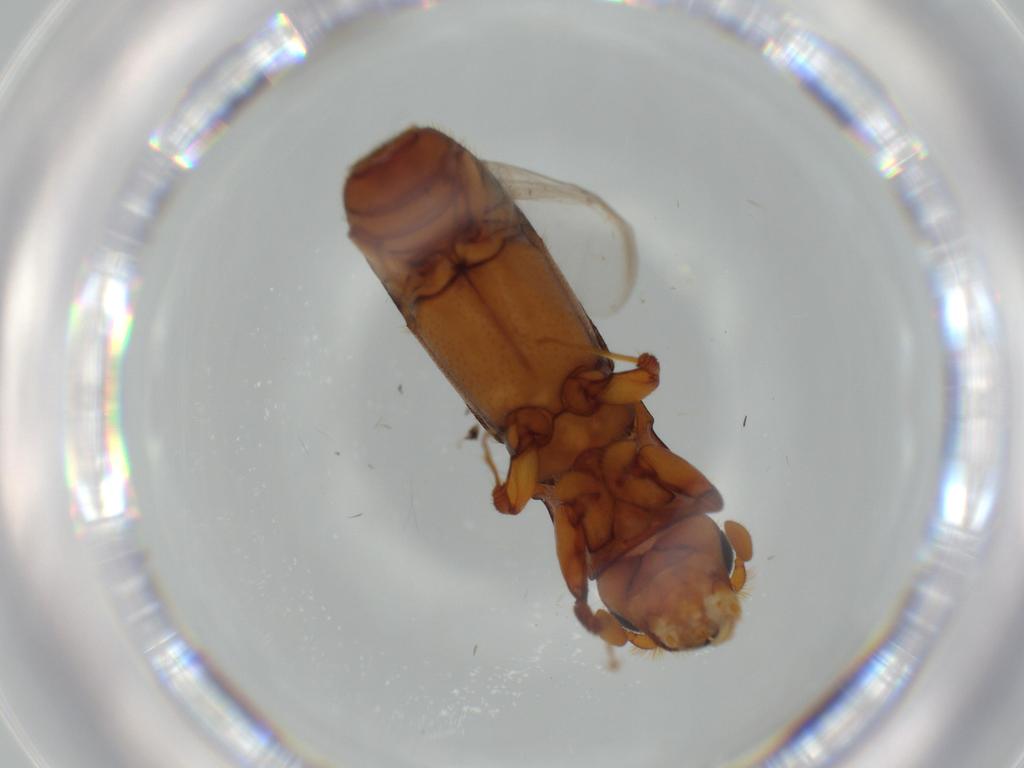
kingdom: Animalia
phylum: Arthropoda
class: Insecta
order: Coleoptera
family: Curculionidae
